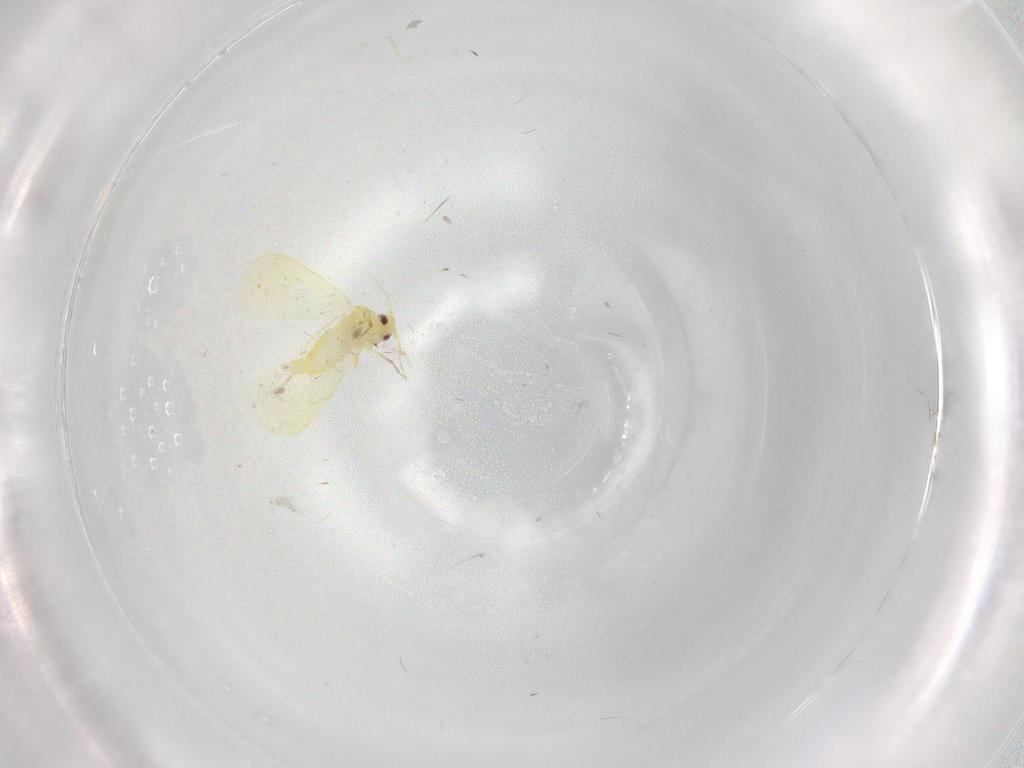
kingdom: Animalia
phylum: Arthropoda
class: Insecta
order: Hemiptera
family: Aleyrodidae
